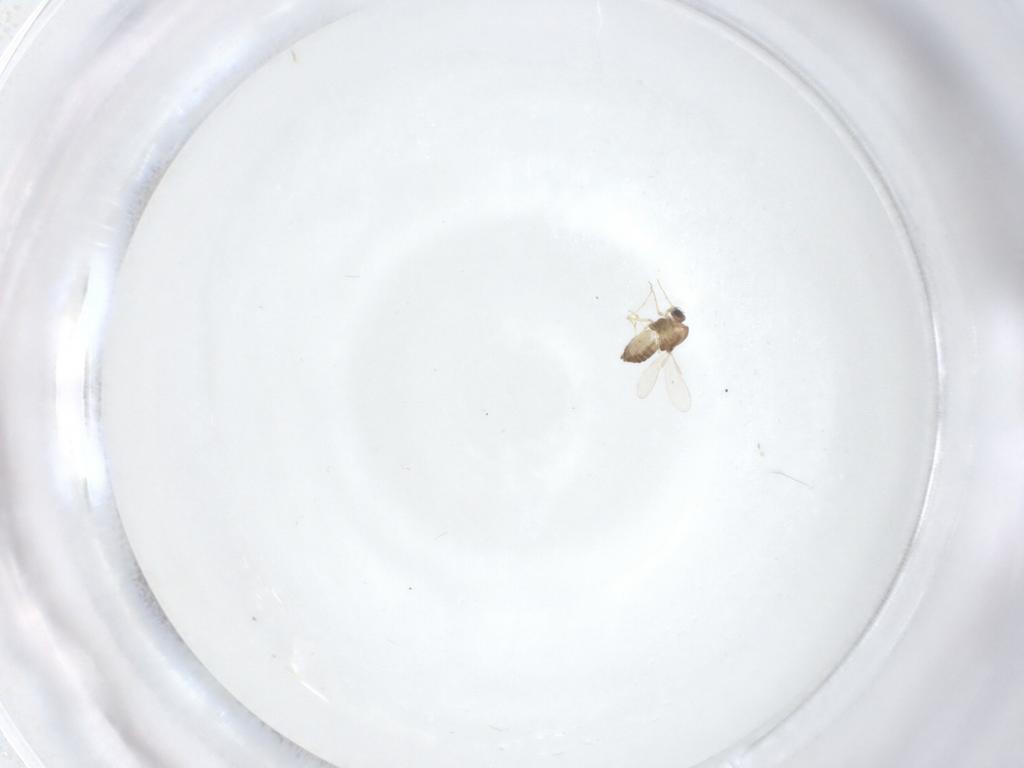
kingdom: Animalia
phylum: Arthropoda
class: Insecta
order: Diptera
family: Chironomidae
